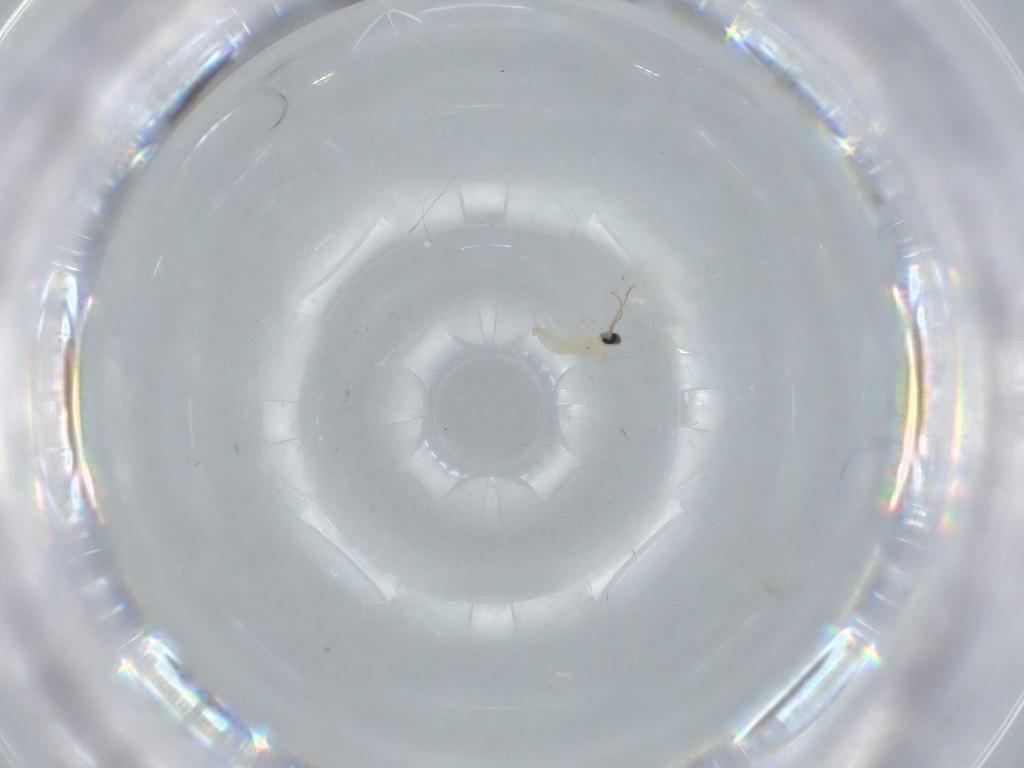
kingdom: Animalia
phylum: Arthropoda
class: Insecta
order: Diptera
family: Cecidomyiidae
